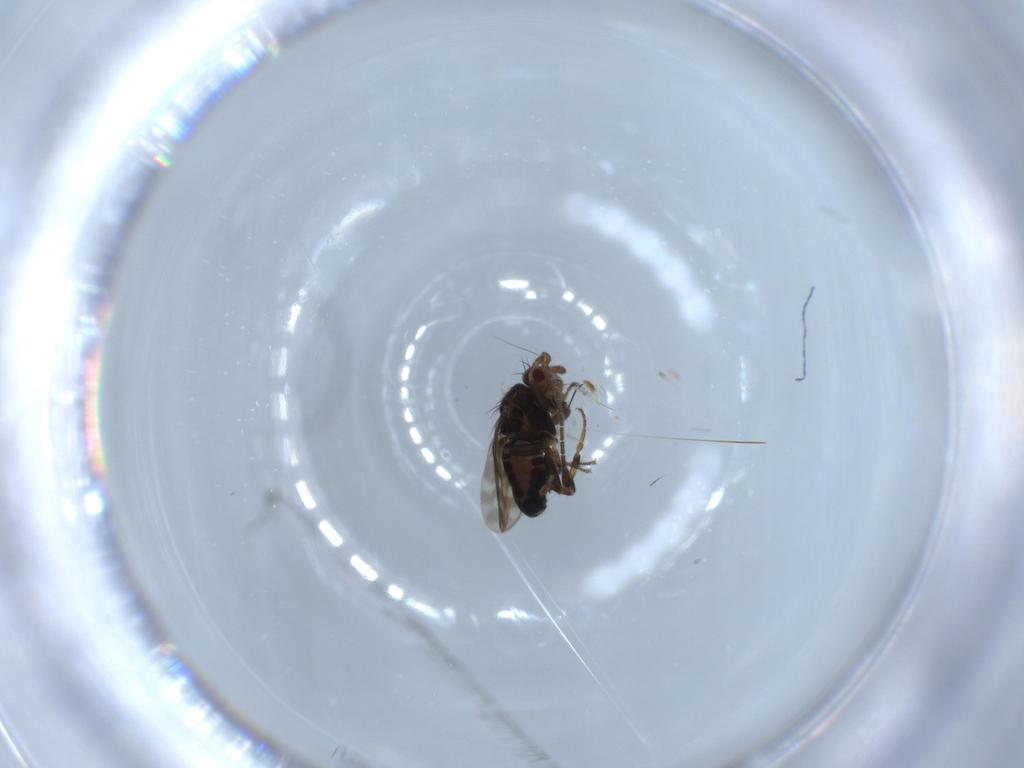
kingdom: Animalia
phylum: Arthropoda
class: Insecta
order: Diptera
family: Sphaeroceridae
